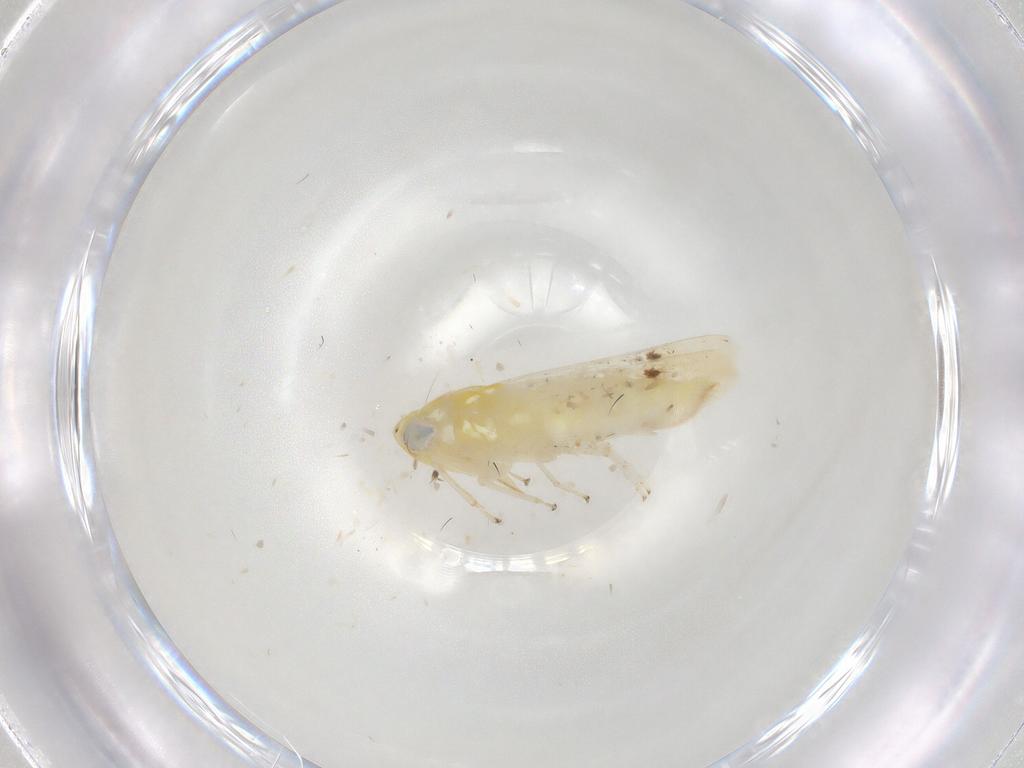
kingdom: Animalia
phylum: Arthropoda
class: Insecta
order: Hemiptera
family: Cicadellidae
